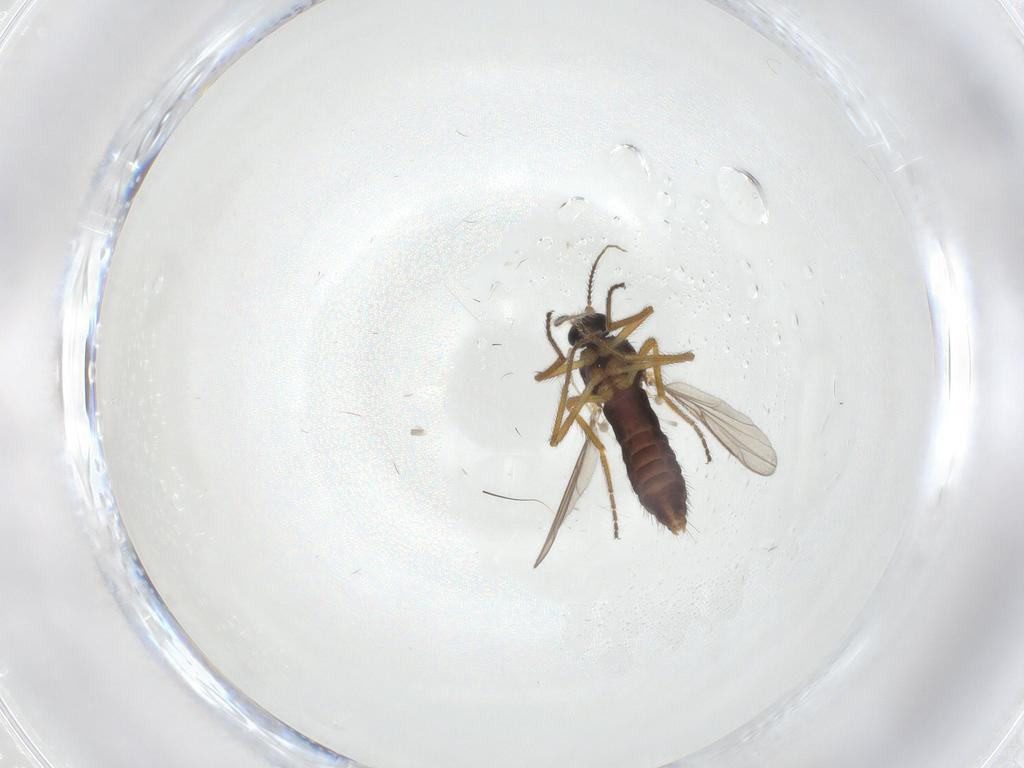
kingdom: Animalia
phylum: Arthropoda
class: Insecta
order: Diptera
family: Ceratopogonidae
